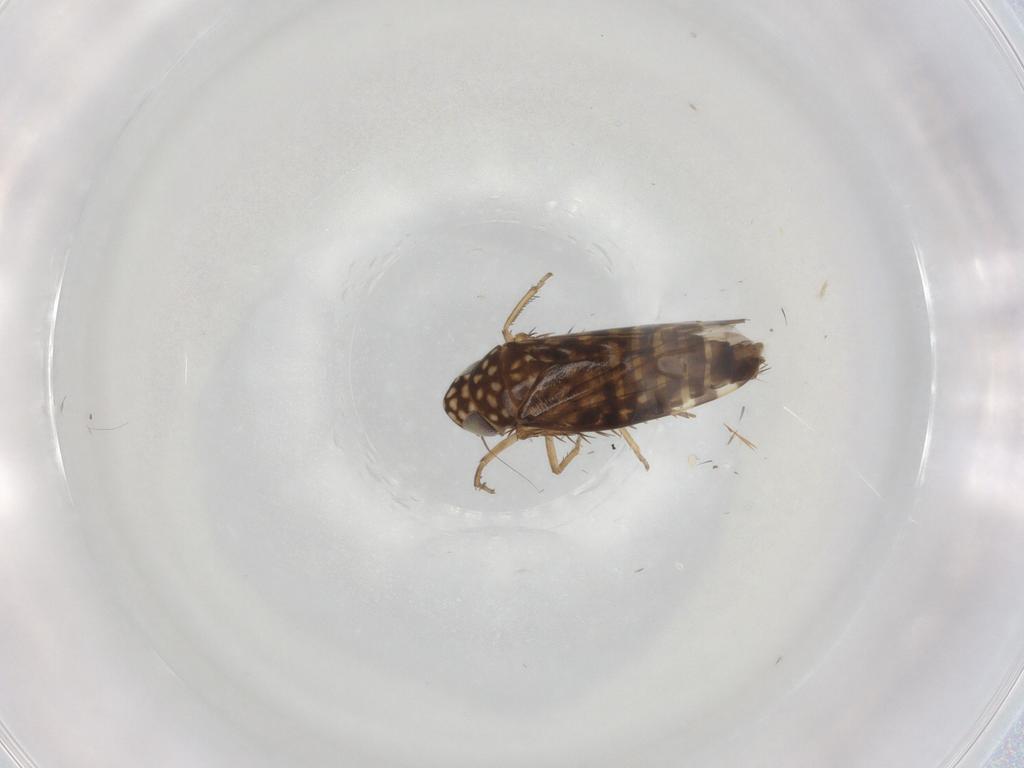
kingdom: Animalia
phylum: Arthropoda
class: Insecta
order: Hemiptera
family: Cicadellidae
